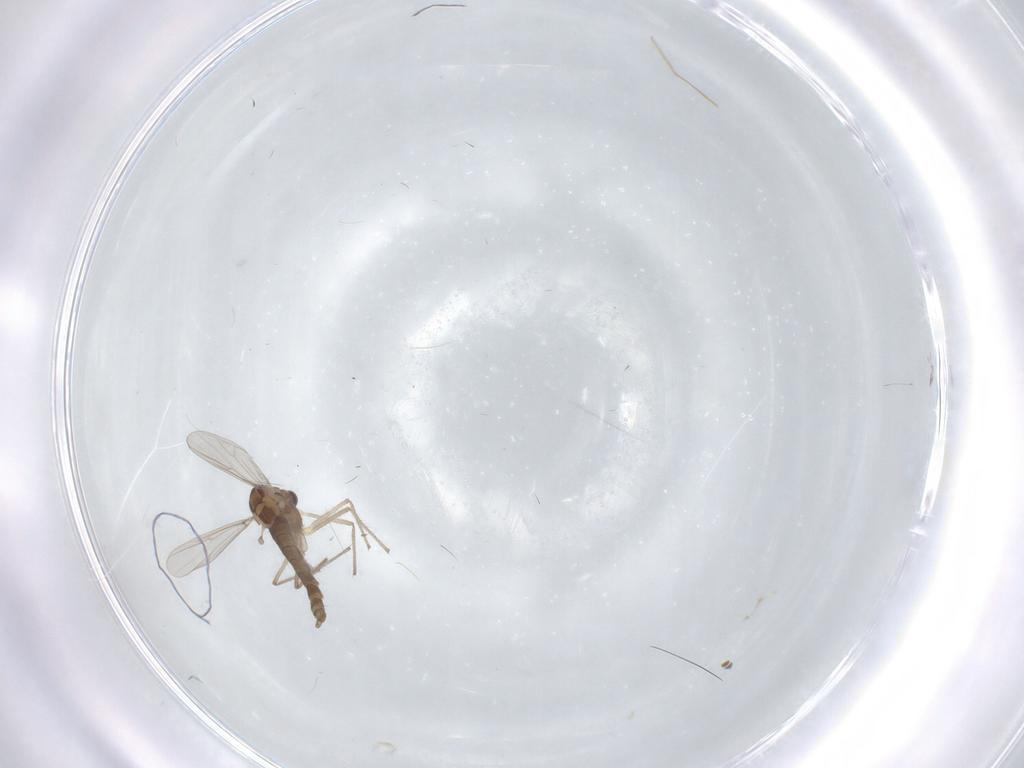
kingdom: Animalia
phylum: Arthropoda
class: Insecta
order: Diptera
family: Chironomidae
